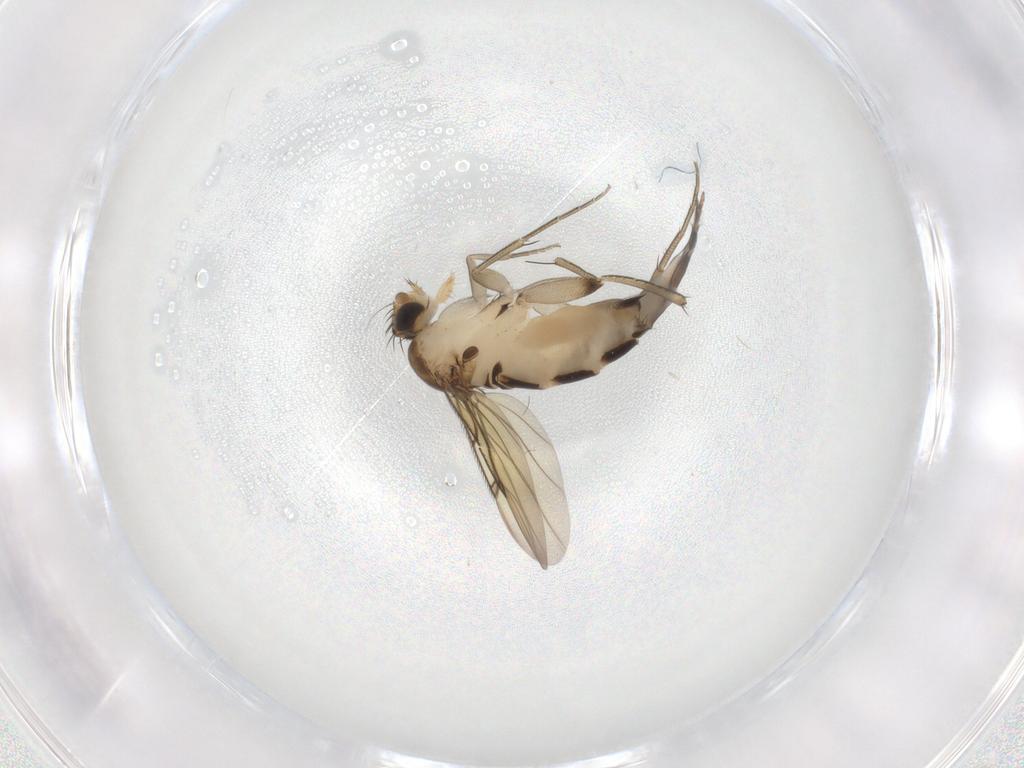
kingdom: Animalia
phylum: Arthropoda
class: Insecta
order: Diptera
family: Phoridae
